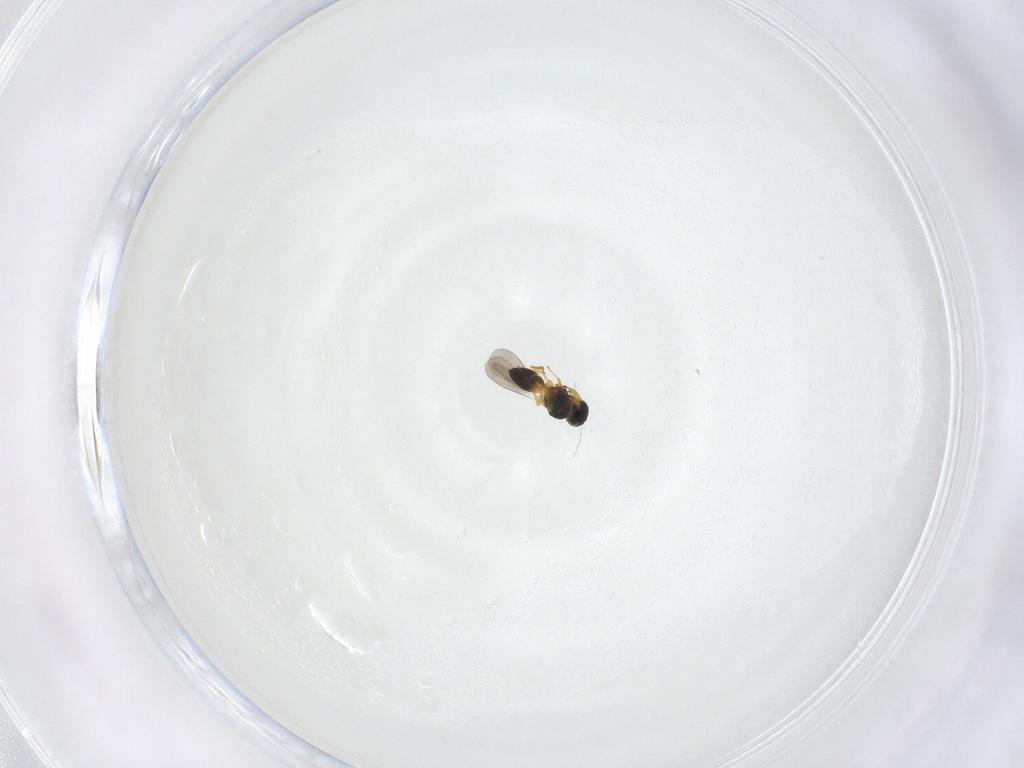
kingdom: Animalia
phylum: Arthropoda
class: Insecta
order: Hymenoptera
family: Platygastridae
